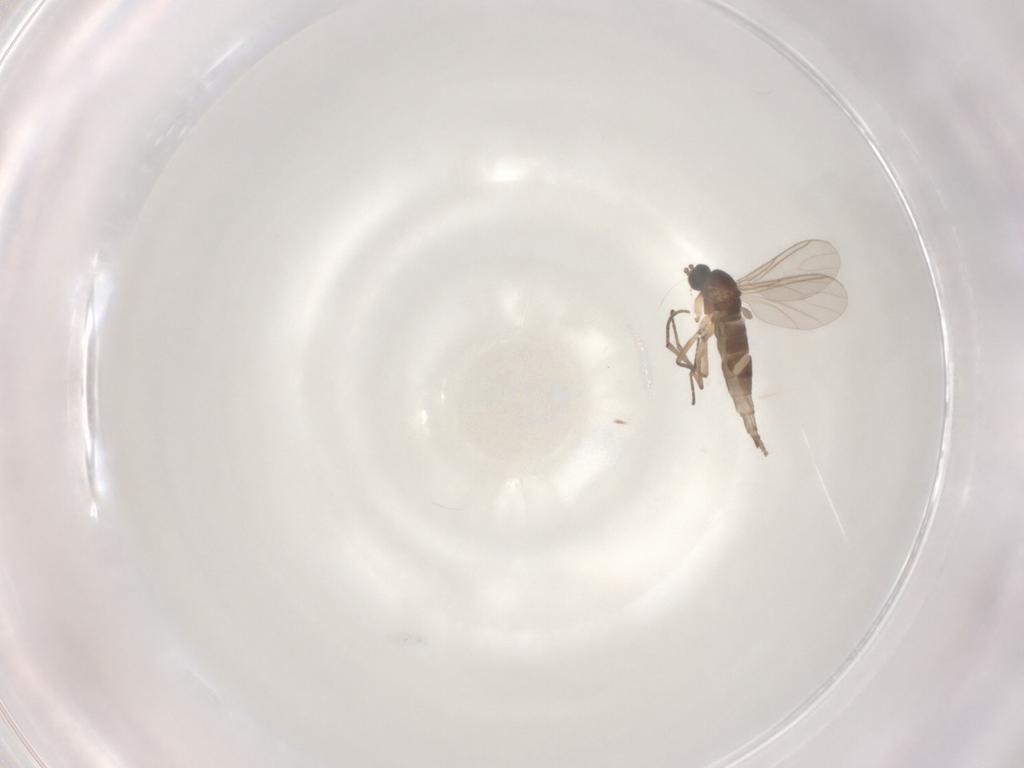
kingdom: Animalia
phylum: Arthropoda
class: Insecta
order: Diptera
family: Sciaridae
